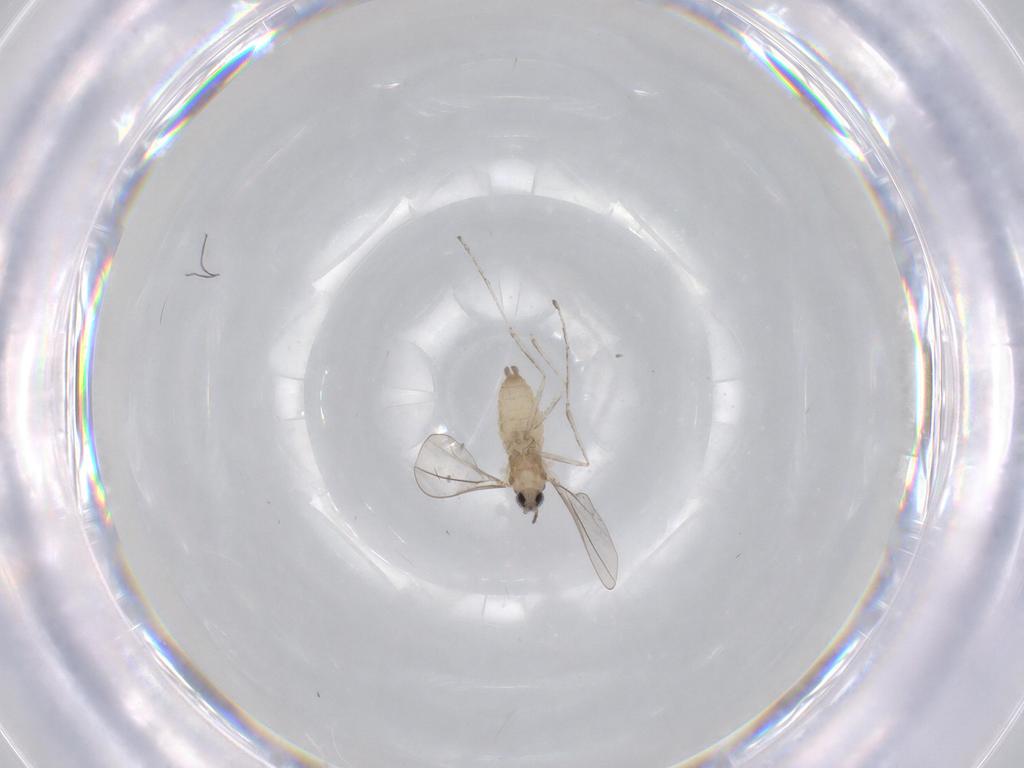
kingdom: Animalia
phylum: Arthropoda
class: Insecta
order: Diptera
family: Cecidomyiidae
